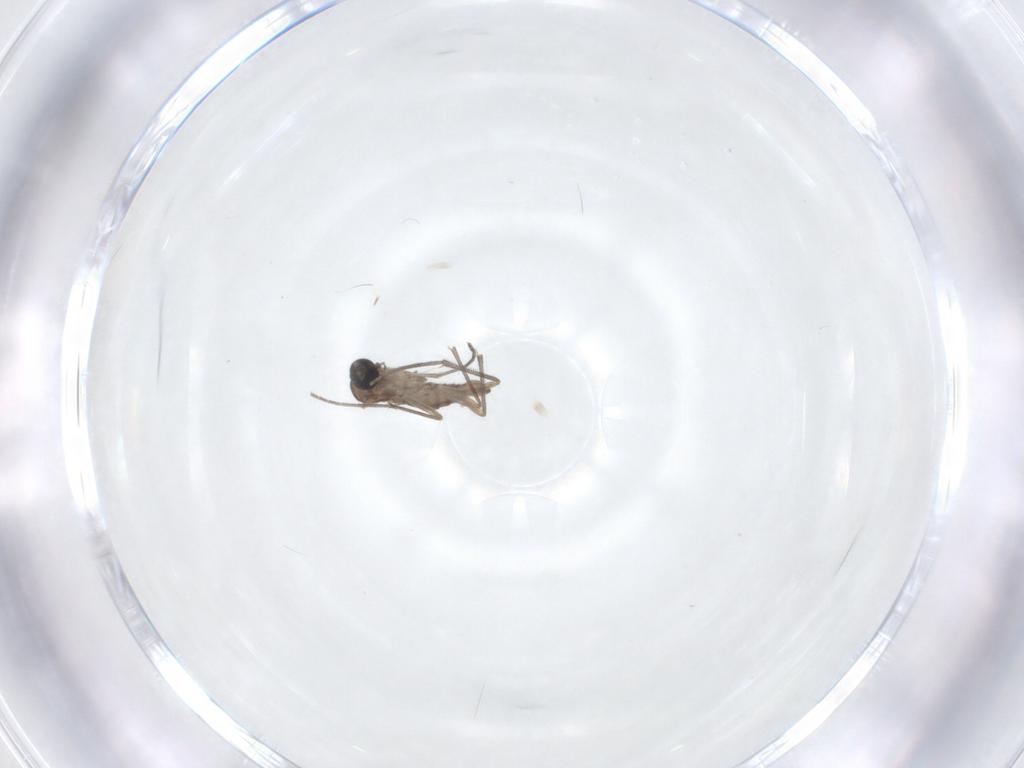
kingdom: Animalia
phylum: Arthropoda
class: Insecta
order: Diptera
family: Sciaridae
